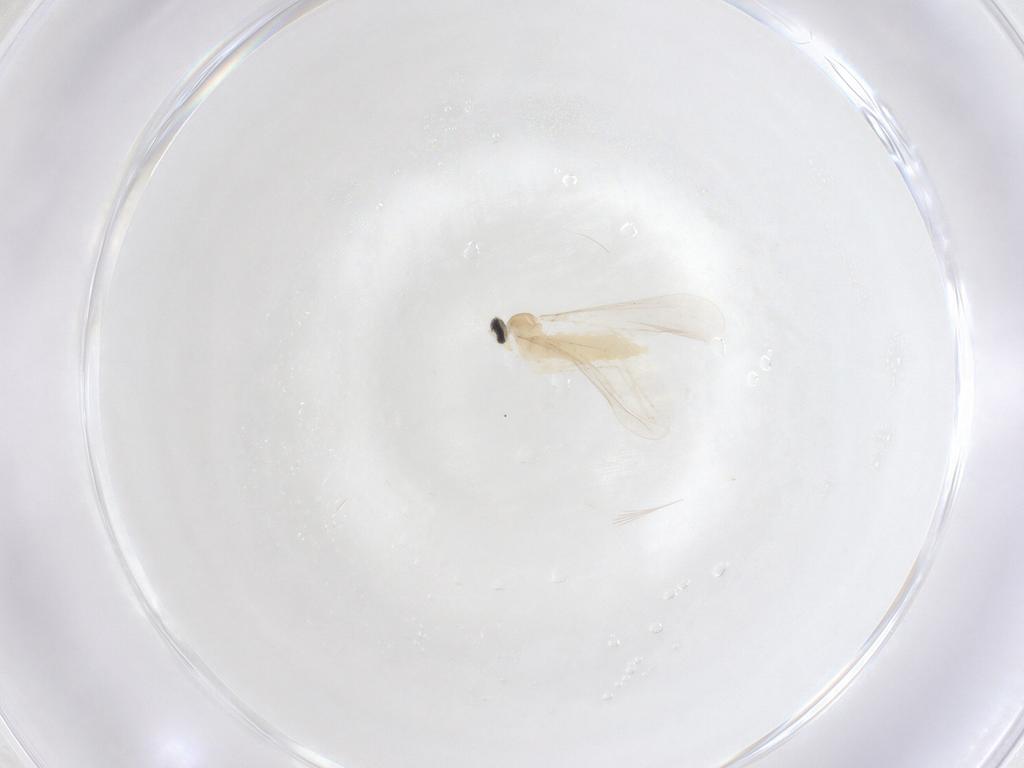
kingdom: Animalia
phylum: Arthropoda
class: Insecta
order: Diptera
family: Cecidomyiidae
